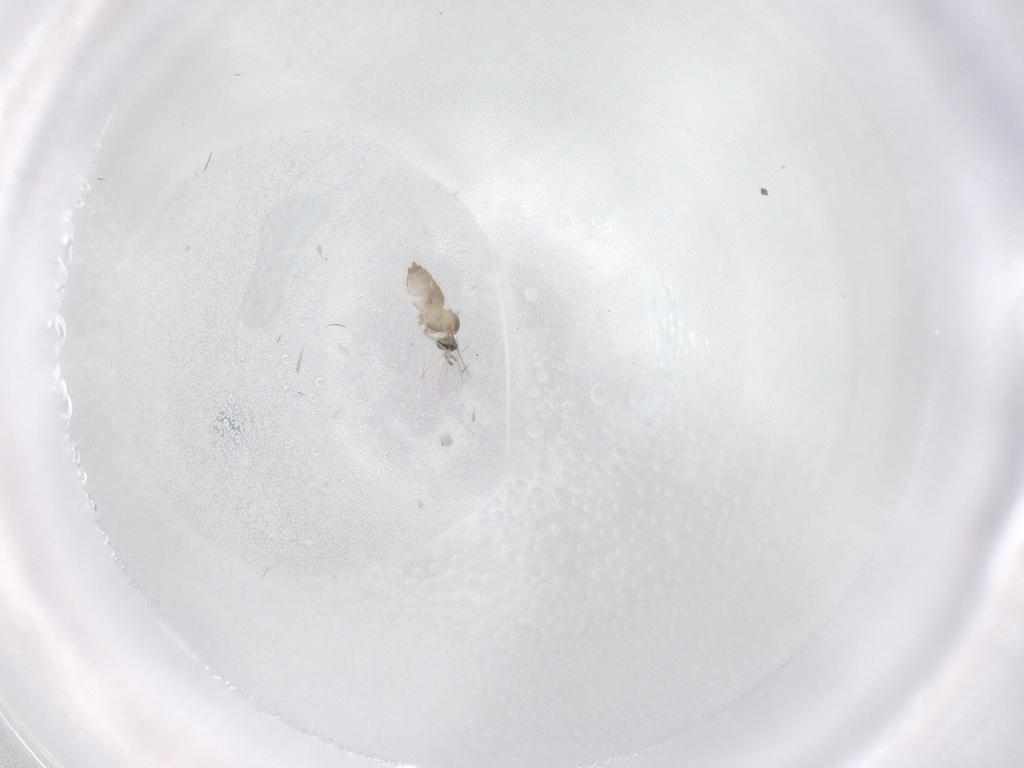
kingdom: Animalia
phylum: Arthropoda
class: Insecta
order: Diptera
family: Cecidomyiidae
